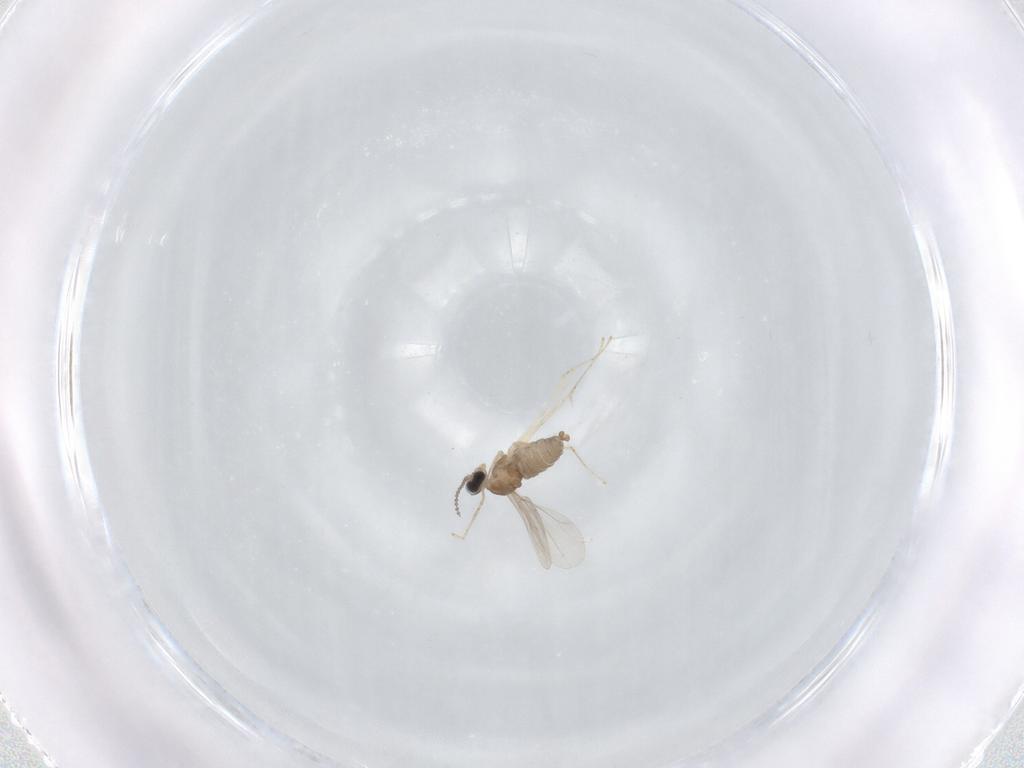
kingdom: Animalia
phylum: Arthropoda
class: Insecta
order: Diptera
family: Cecidomyiidae
